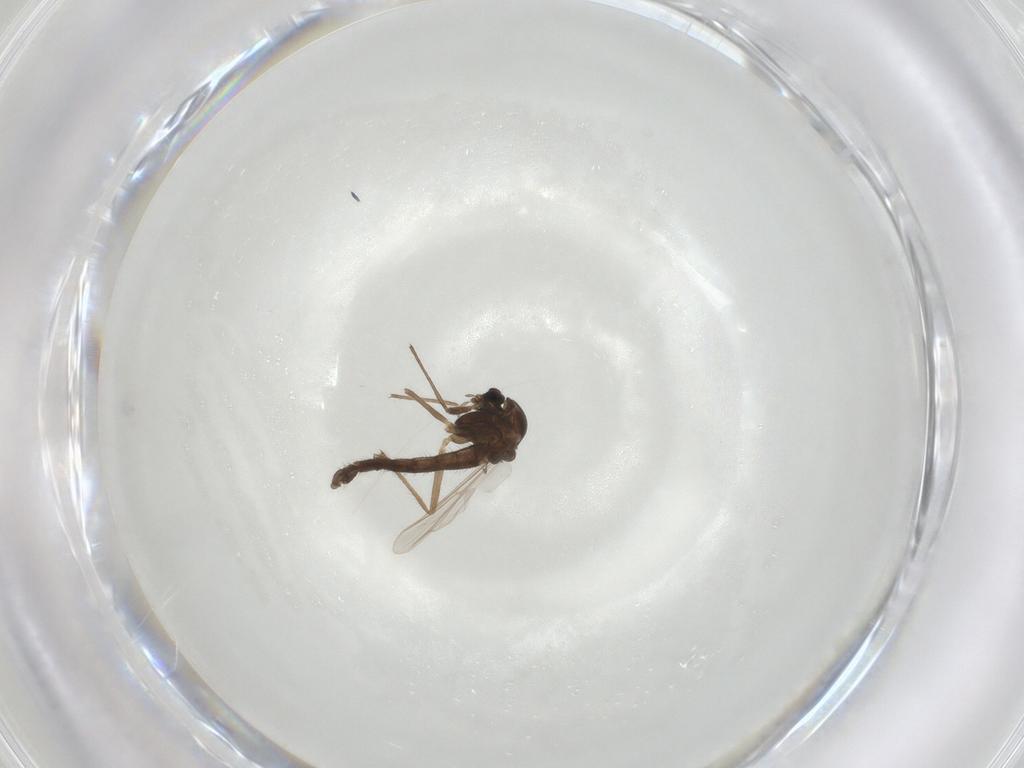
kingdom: Animalia
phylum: Arthropoda
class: Insecta
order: Diptera
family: Chironomidae
